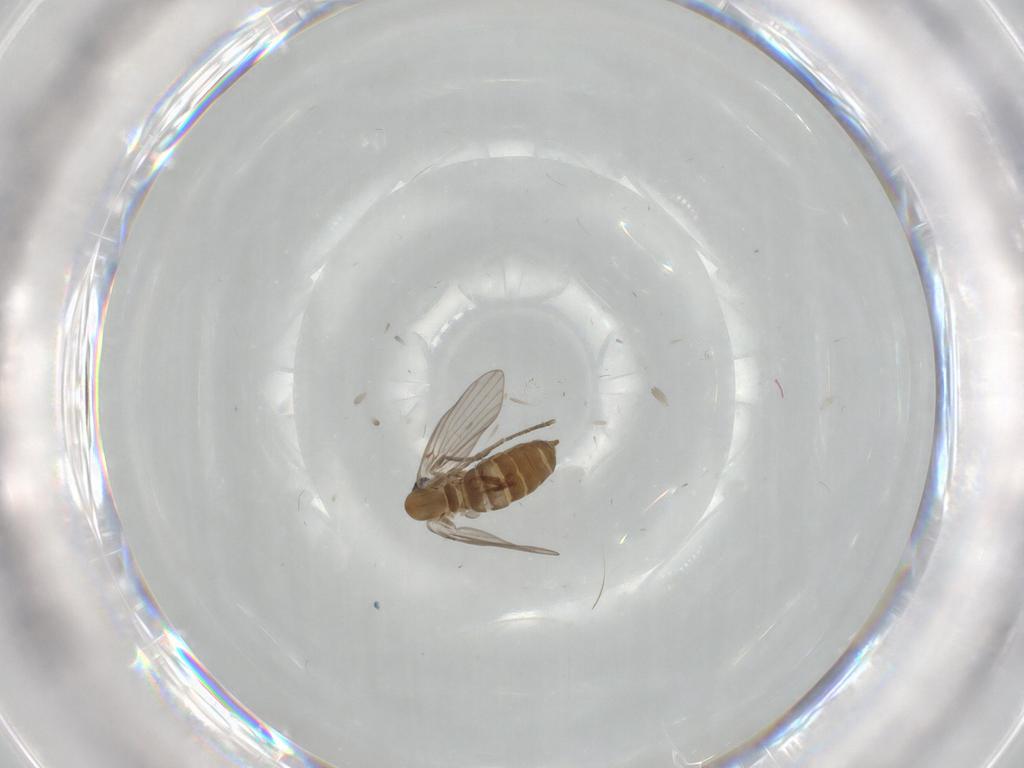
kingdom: Animalia
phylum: Arthropoda
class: Insecta
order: Diptera
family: Psychodidae
